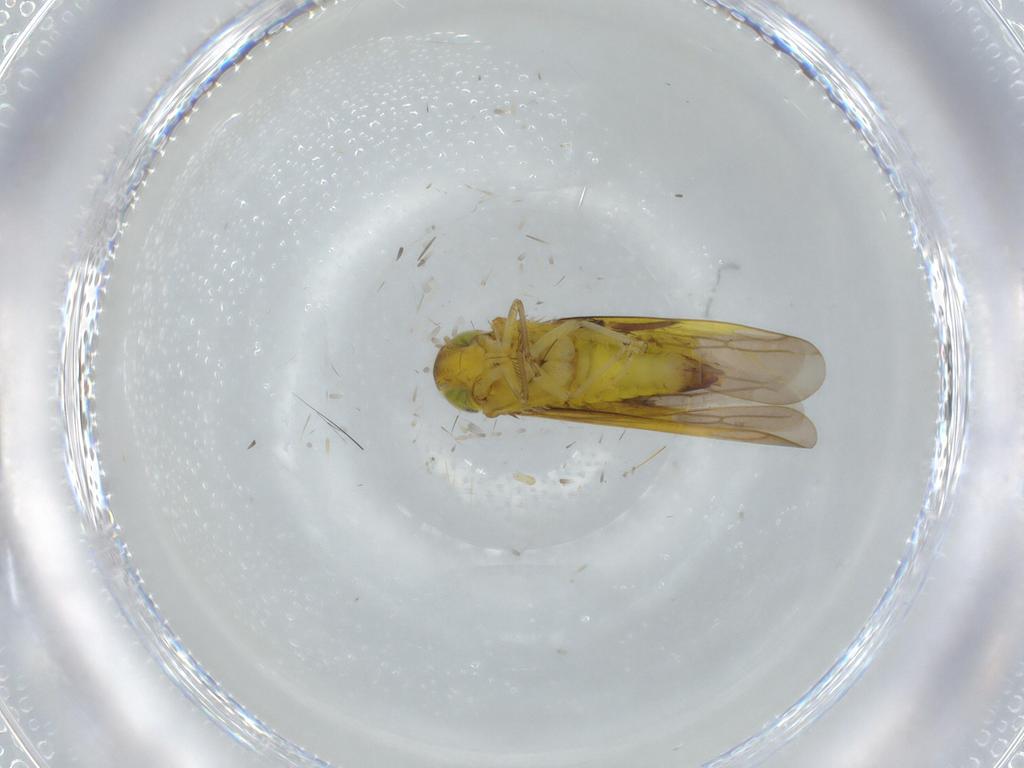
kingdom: Animalia
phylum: Arthropoda
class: Insecta
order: Hemiptera
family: Cicadellidae
